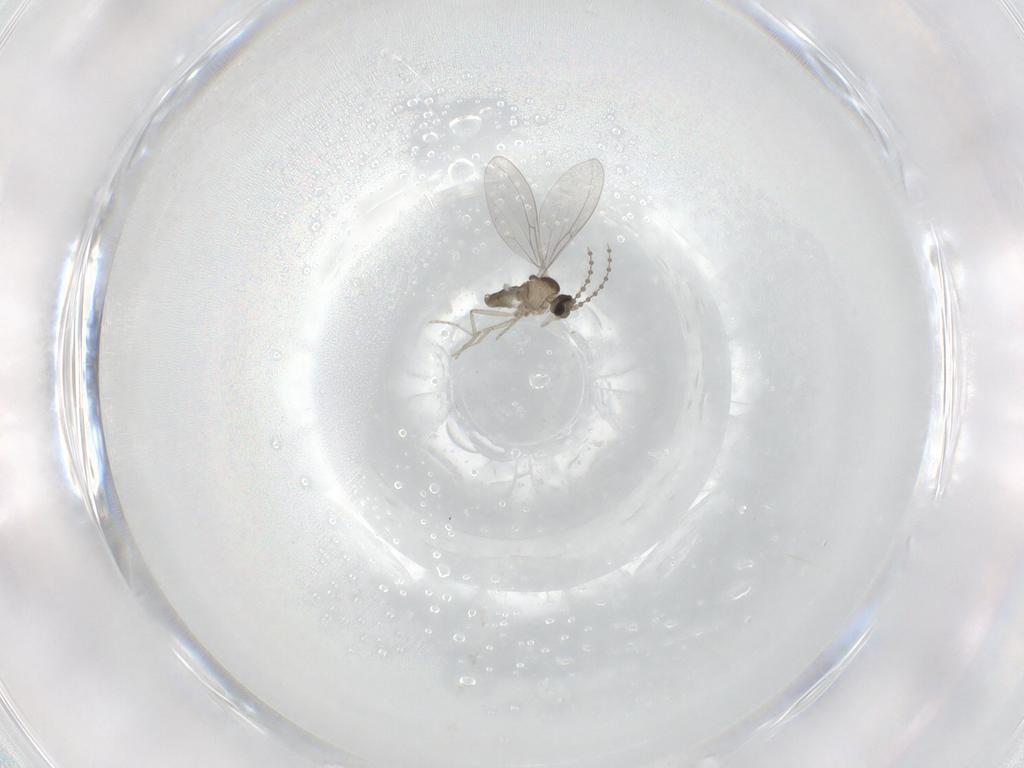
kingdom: Animalia
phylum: Arthropoda
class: Insecta
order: Diptera
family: Sciaridae
